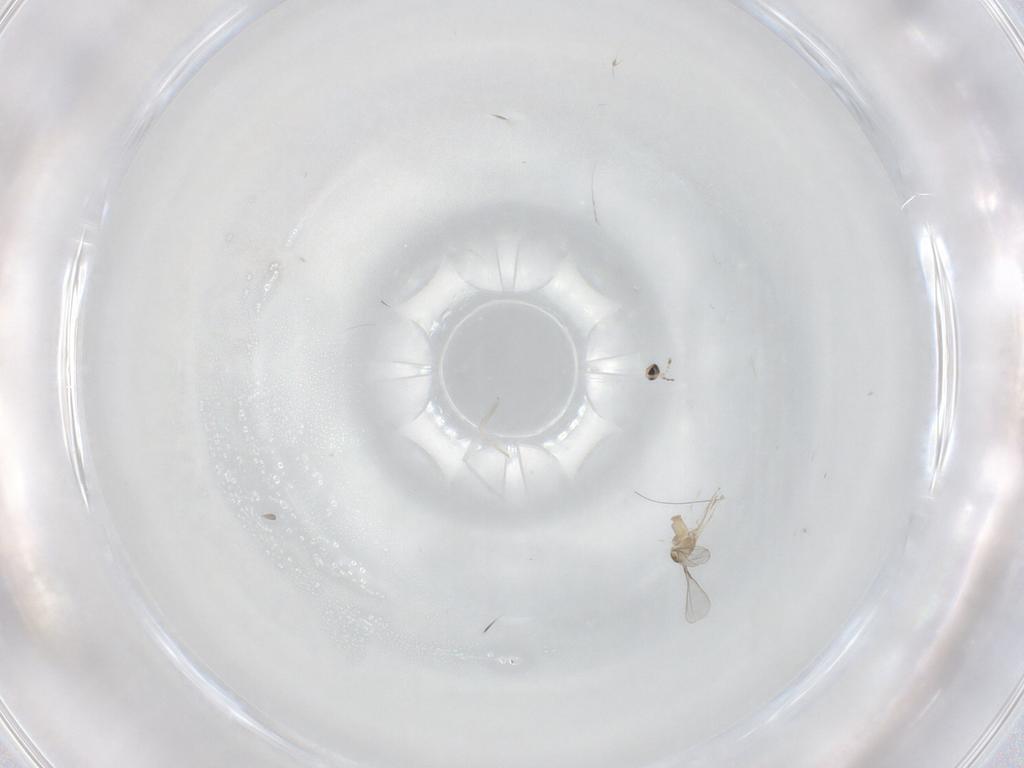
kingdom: Animalia
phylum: Arthropoda
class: Insecta
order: Diptera
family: Cecidomyiidae
